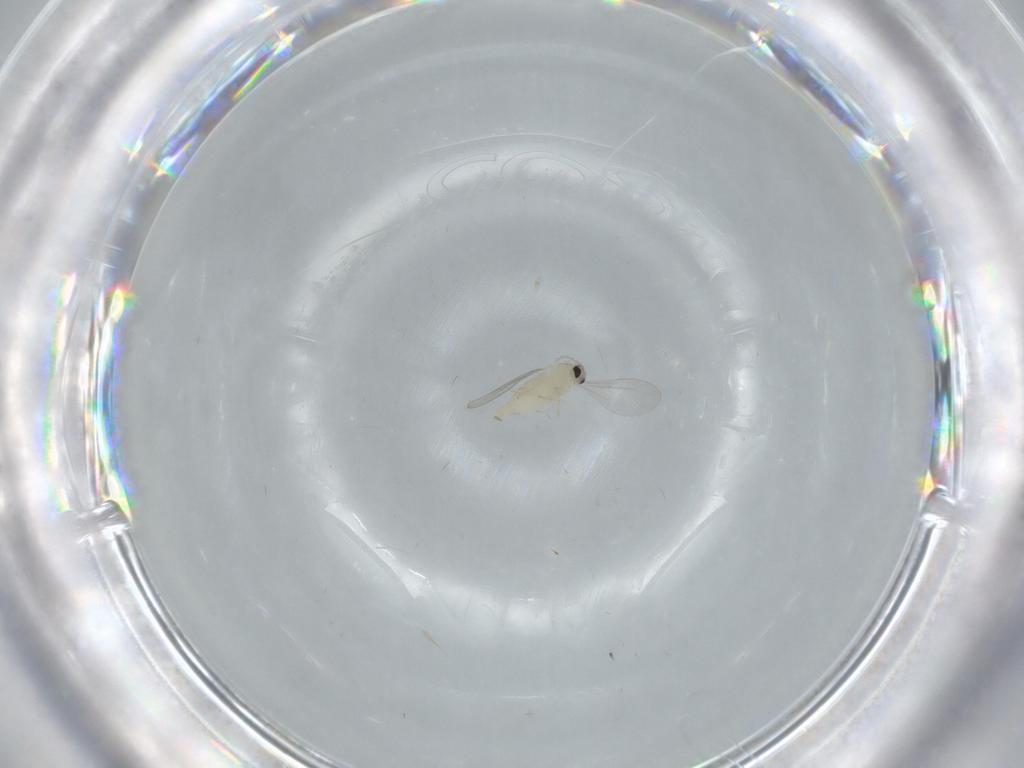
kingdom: Animalia
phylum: Arthropoda
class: Insecta
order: Diptera
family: Cecidomyiidae
